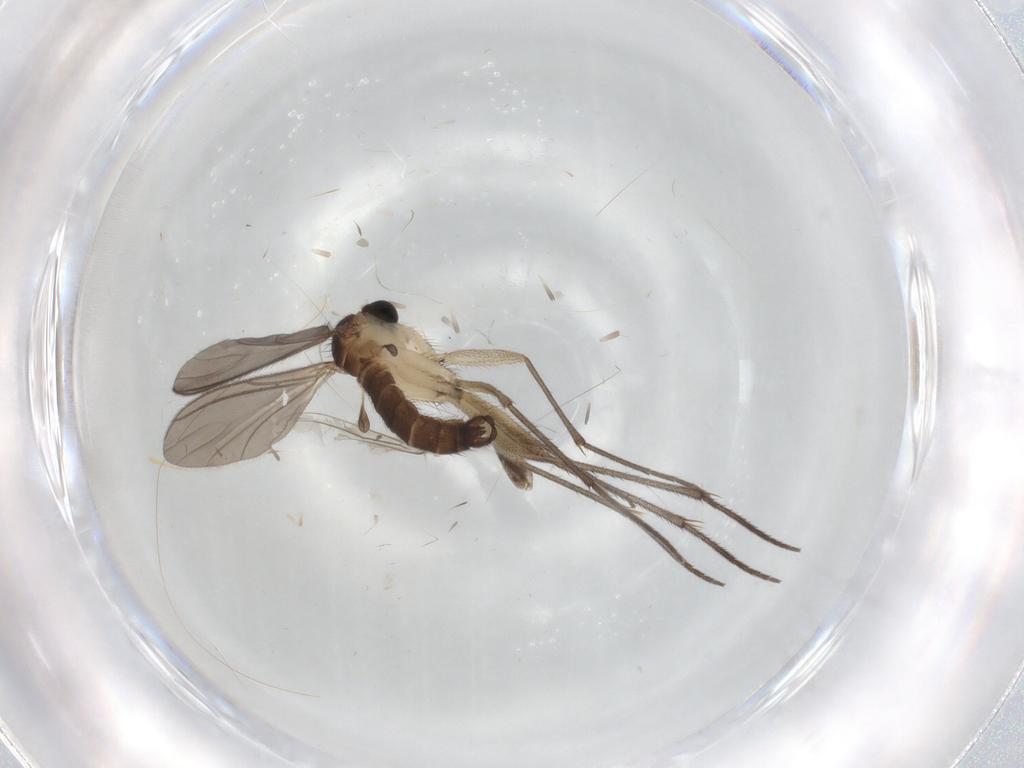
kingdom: Animalia
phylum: Arthropoda
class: Insecta
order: Diptera
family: Sciaridae
